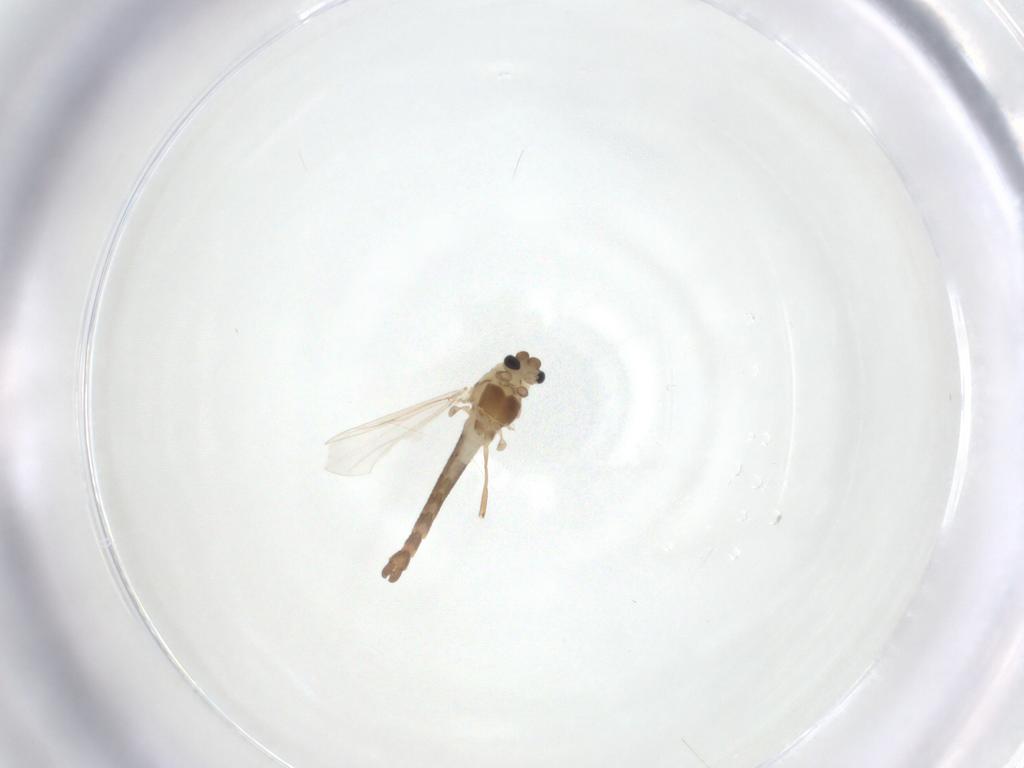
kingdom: Animalia
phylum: Arthropoda
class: Insecta
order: Diptera
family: Chironomidae
